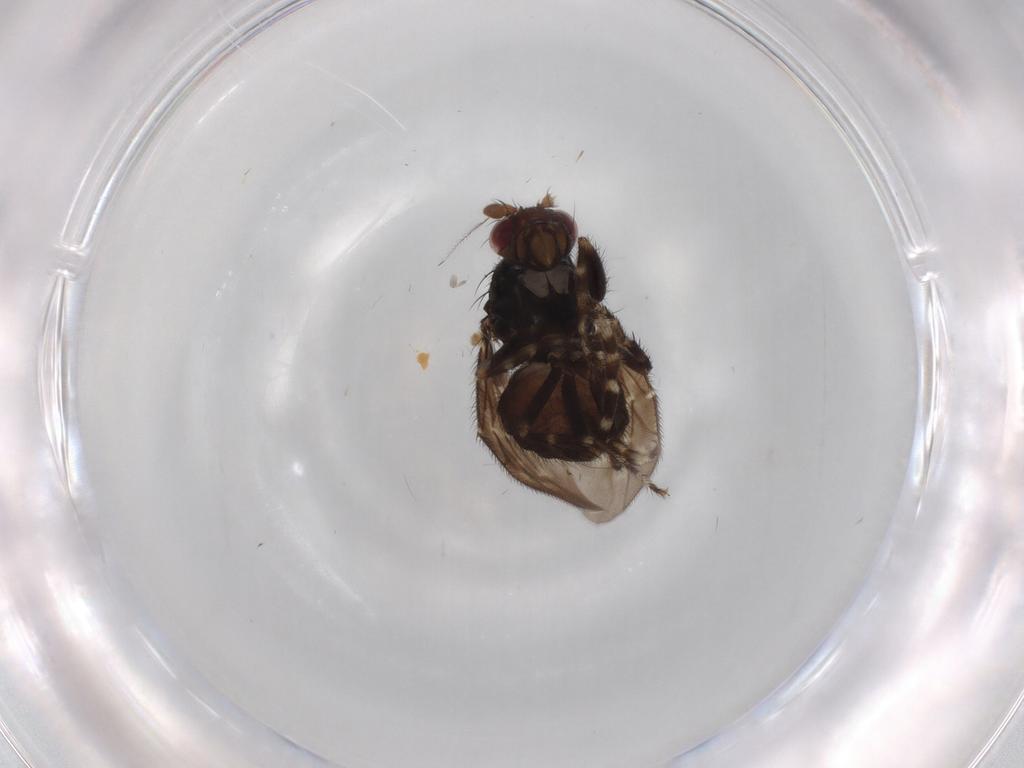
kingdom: Animalia
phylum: Arthropoda
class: Insecta
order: Diptera
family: Sphaeroceridae
